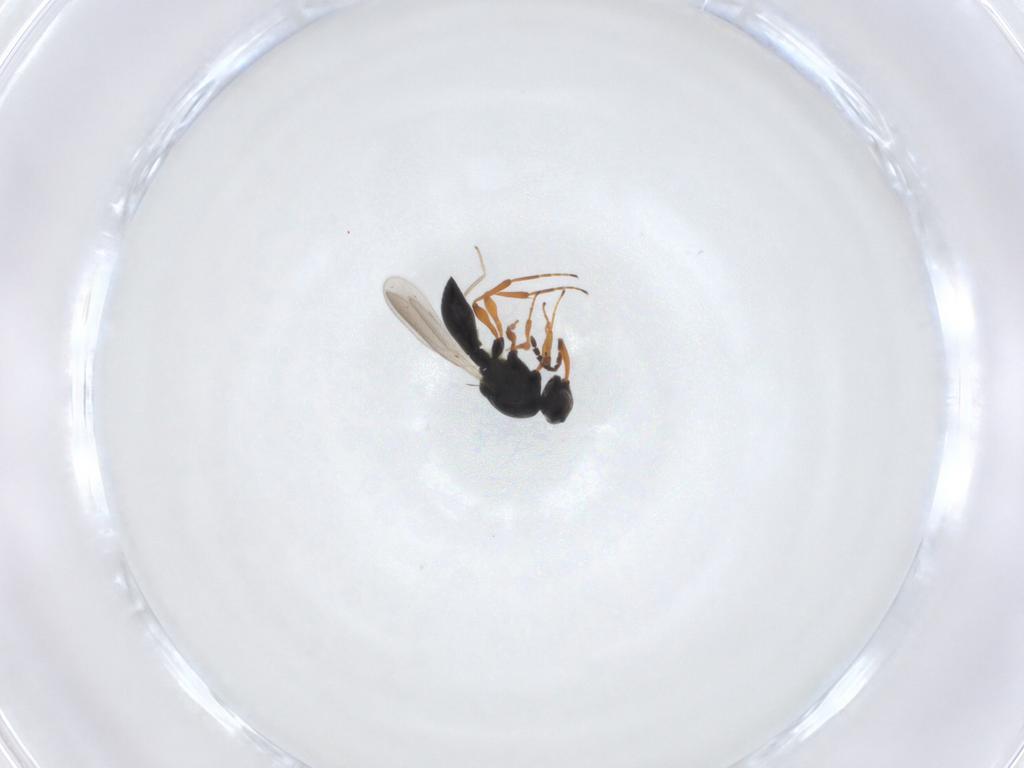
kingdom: Animalia
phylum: Arthropoda
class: Insecta
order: Hymenoptera
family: Platygastridae
